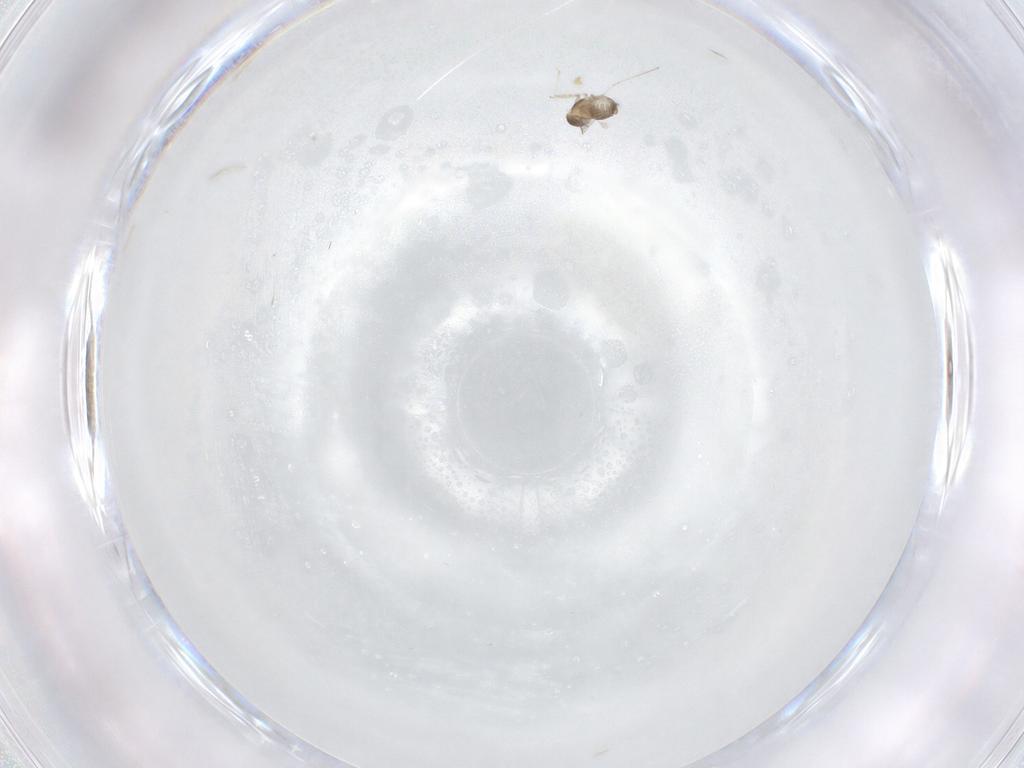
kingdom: Animalia
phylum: Arthropoda
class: Insecta
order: Diptera
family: Cecidomyiidae
